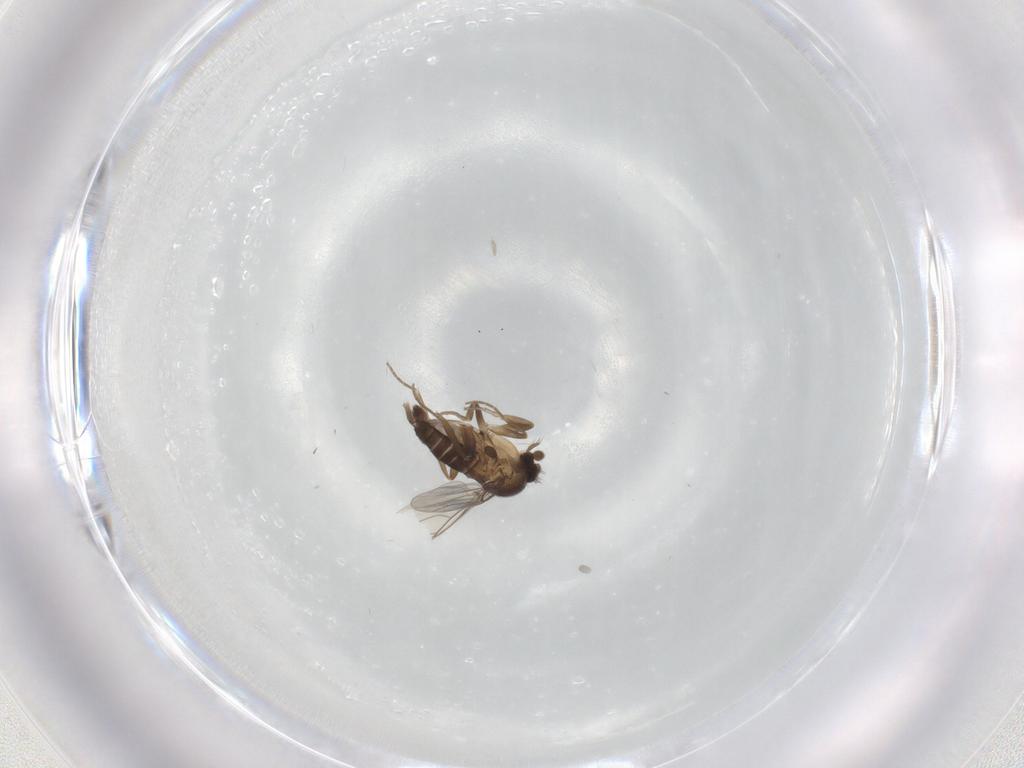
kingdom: Animalia
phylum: Arthropoda
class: Insecta
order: Diptera
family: Phoridae
